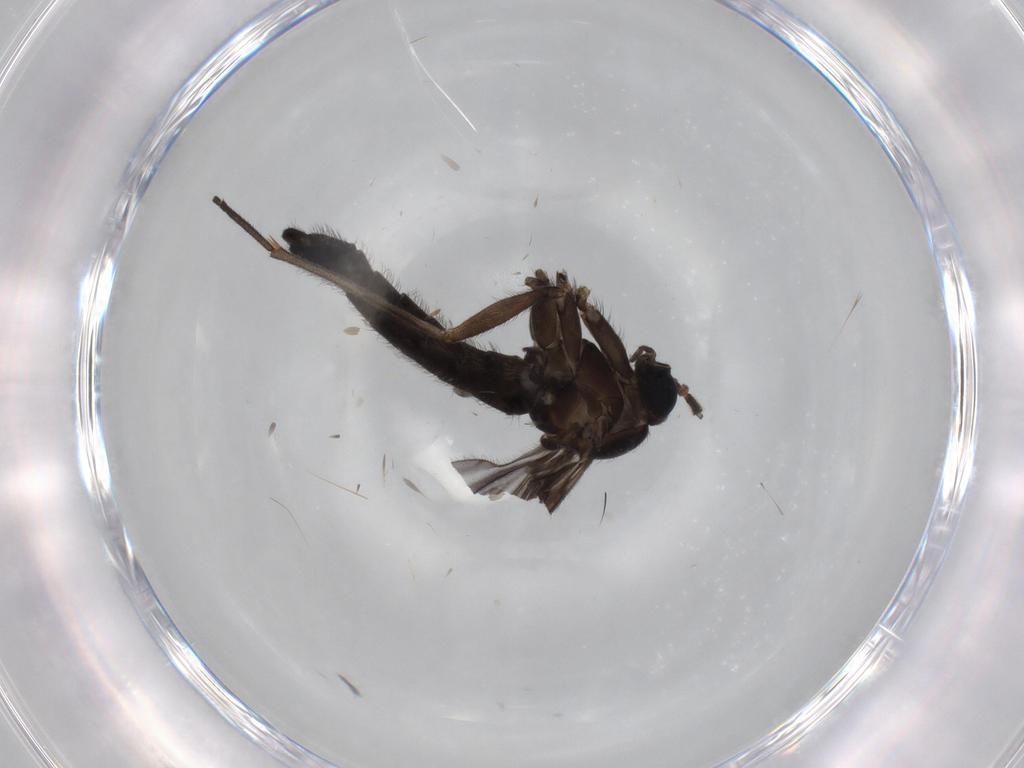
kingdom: Animalia
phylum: Arthropoda
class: Insecta
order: Diptera
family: Cecidomyiidae
